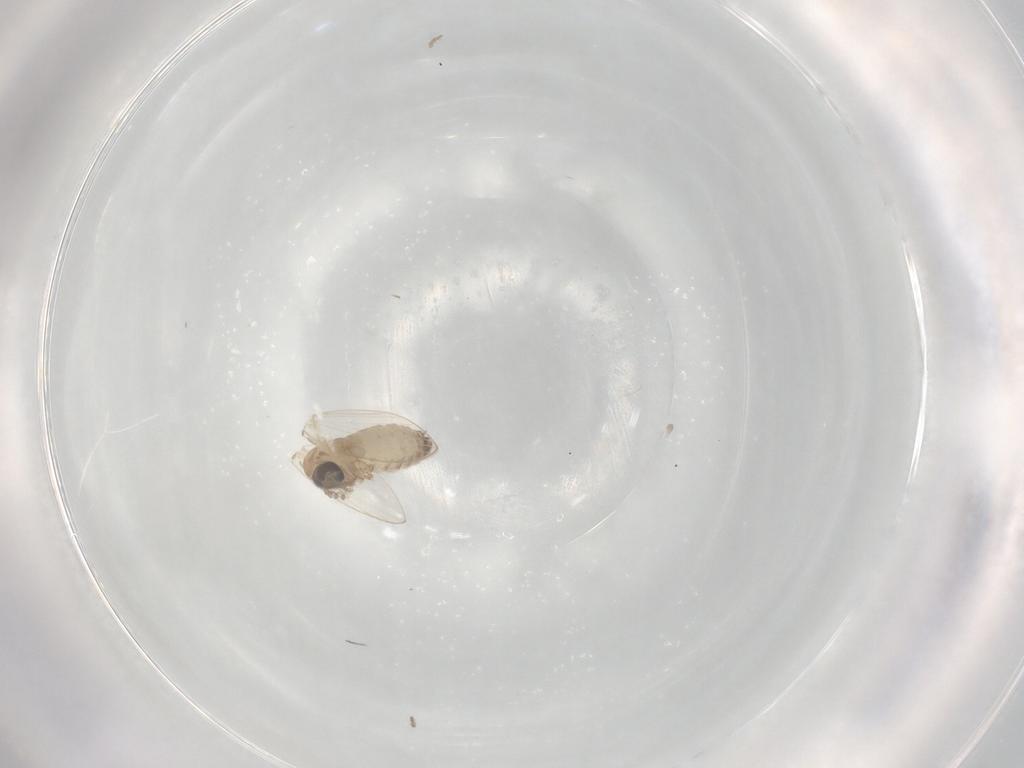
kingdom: Animalia
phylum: Arthropoda
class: Insecta
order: Diptera
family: Psychodidae
